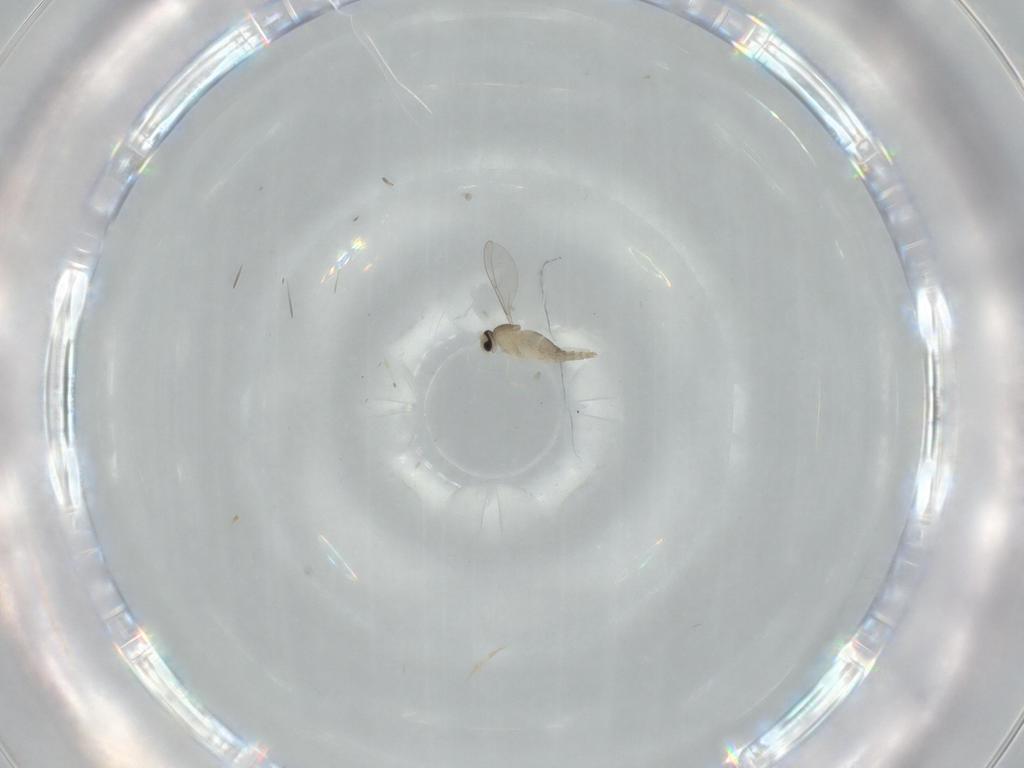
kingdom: Animalia
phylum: Arthropoda
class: Insecta
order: Diptera
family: Cecidomyiidae
